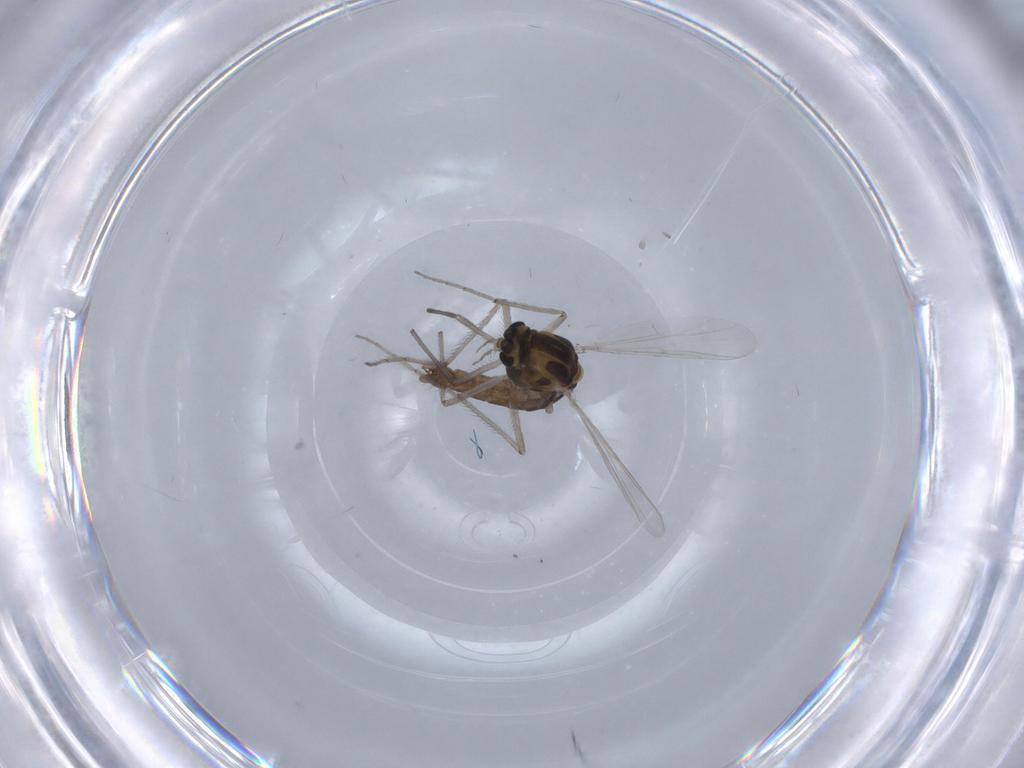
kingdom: Animalia
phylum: Arthropoda
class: Insecta
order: Diptera
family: Chironomidae
